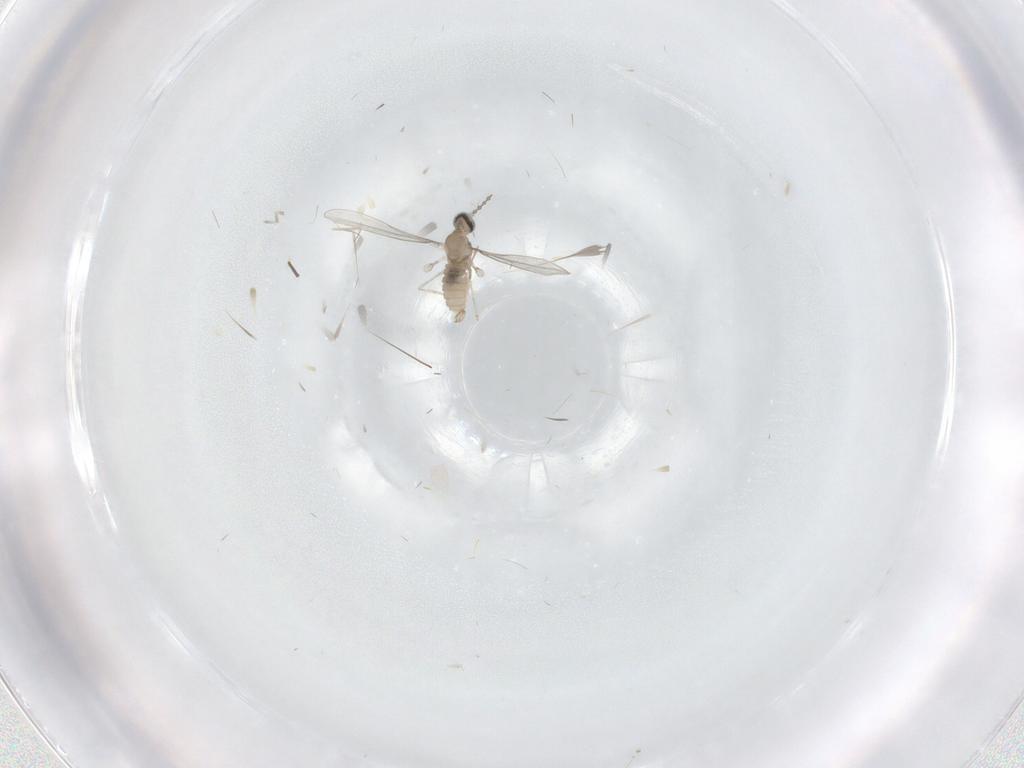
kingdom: Animalia
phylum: Arthropoda
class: Insecta
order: Diptera
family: Cecidomyiidae
